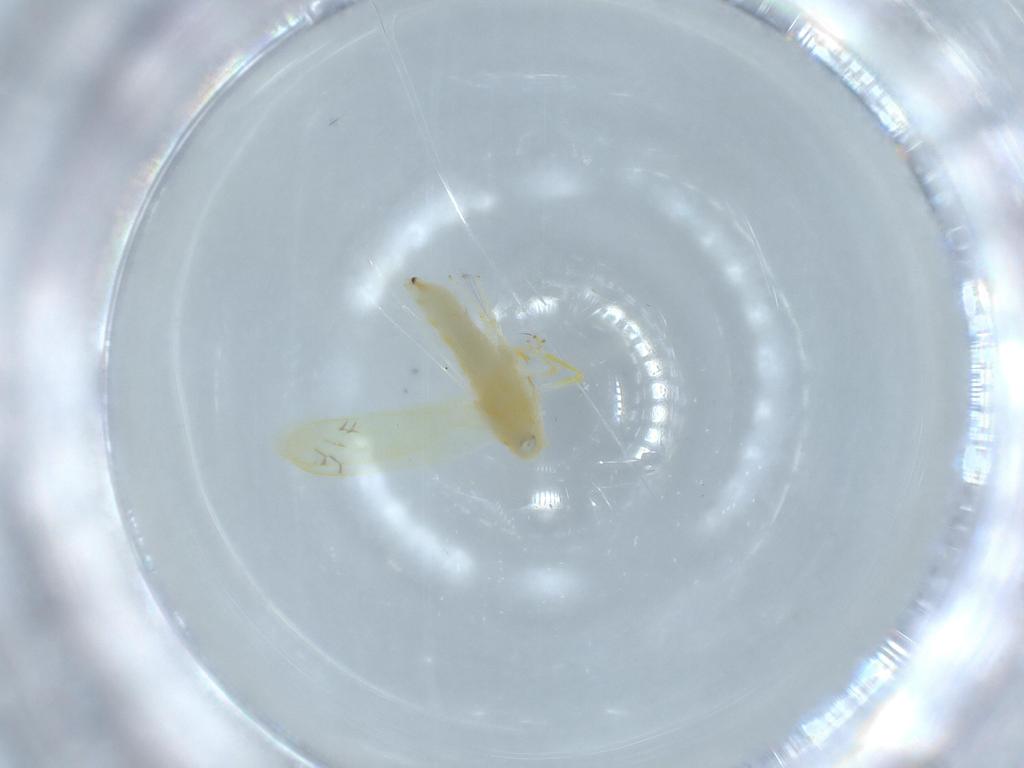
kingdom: Animalia
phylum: Arthropoda
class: Insecta
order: Hemiptera
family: Cicadellidae
